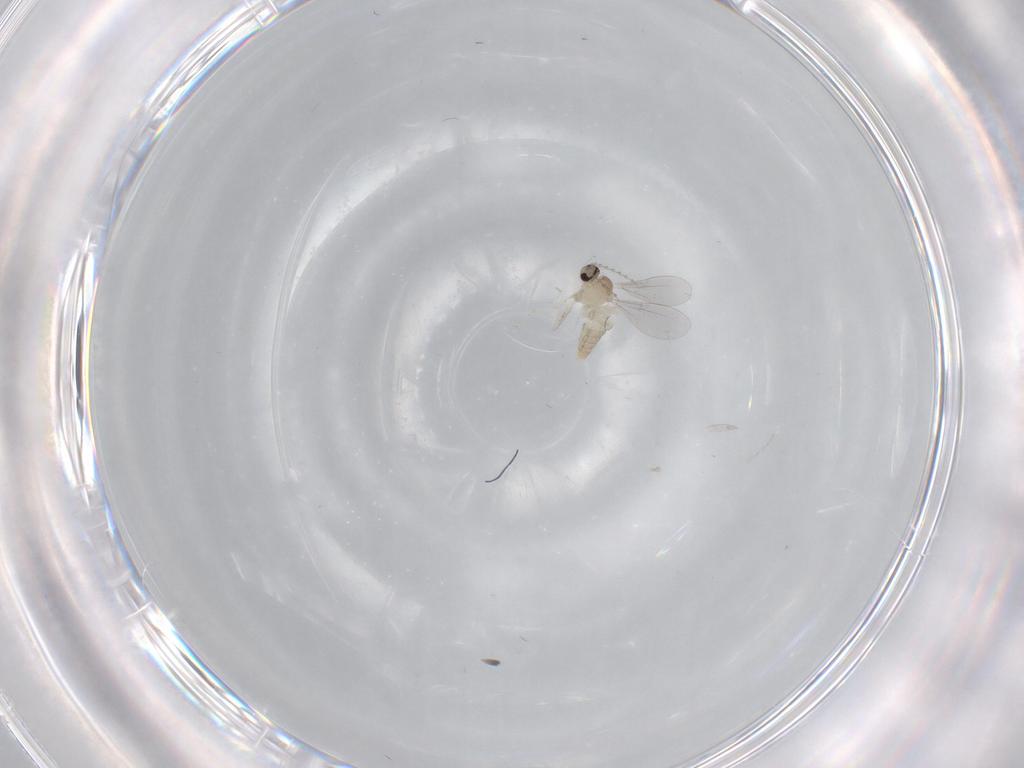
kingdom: Animalia
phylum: Arthropoda
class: Insecta
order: Diptera
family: Cecidomyiidae
